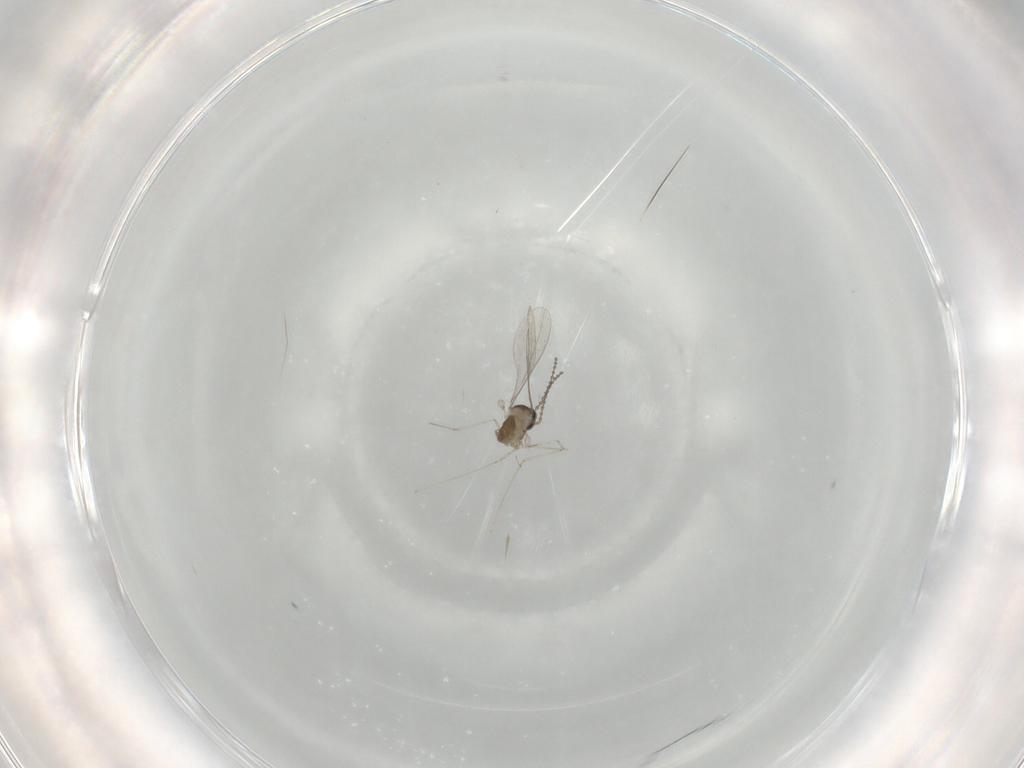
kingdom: Animalia
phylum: Arthropoda
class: Insecta
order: Diptera
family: Cecidomyiidae
